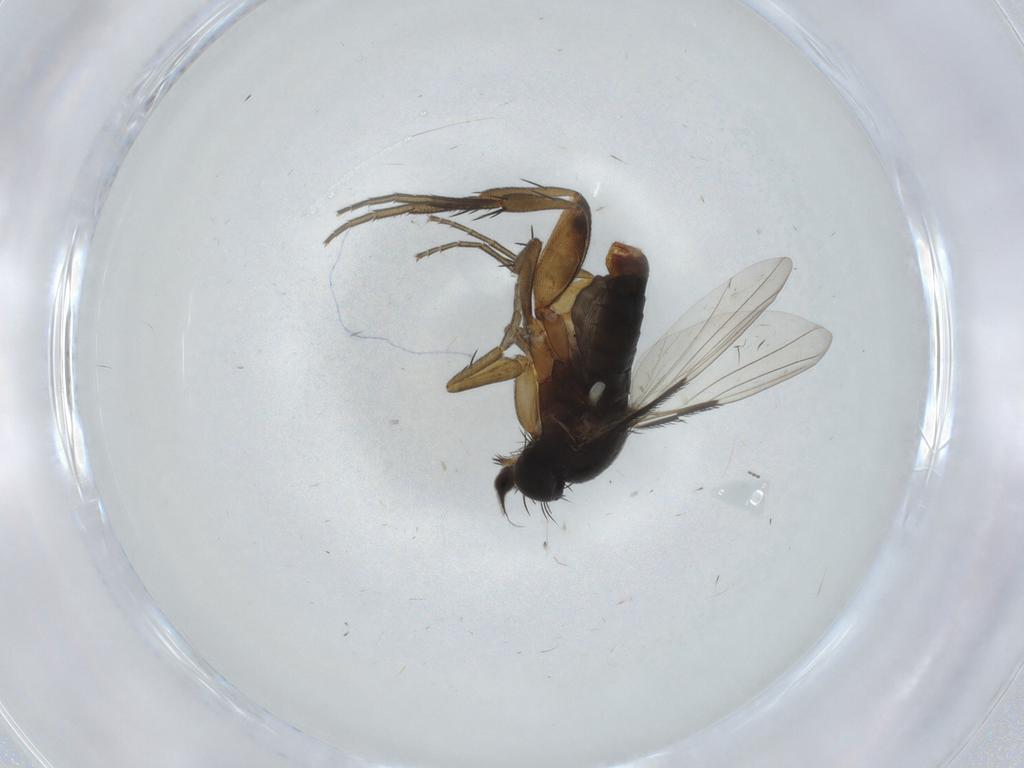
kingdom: Animalia
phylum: Arthropoda
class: Insecta
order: Diptera
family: Phoridae
